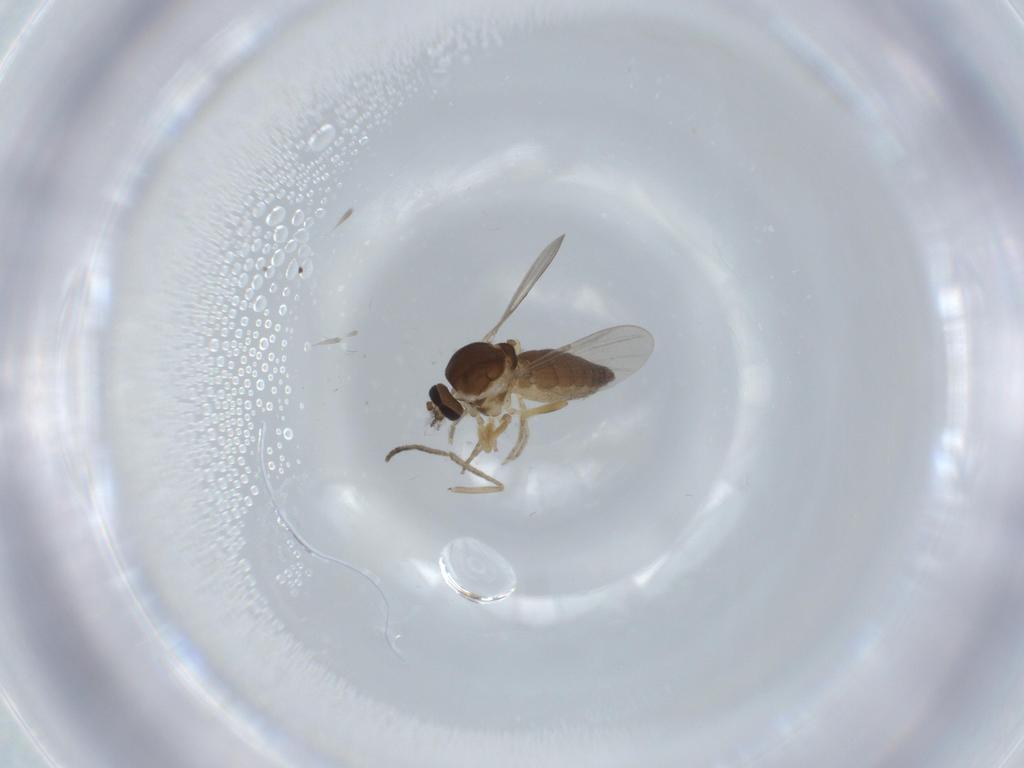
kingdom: Animalia
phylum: Arthropoda
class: Insecta
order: Diptera
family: Ceratopogonidae
